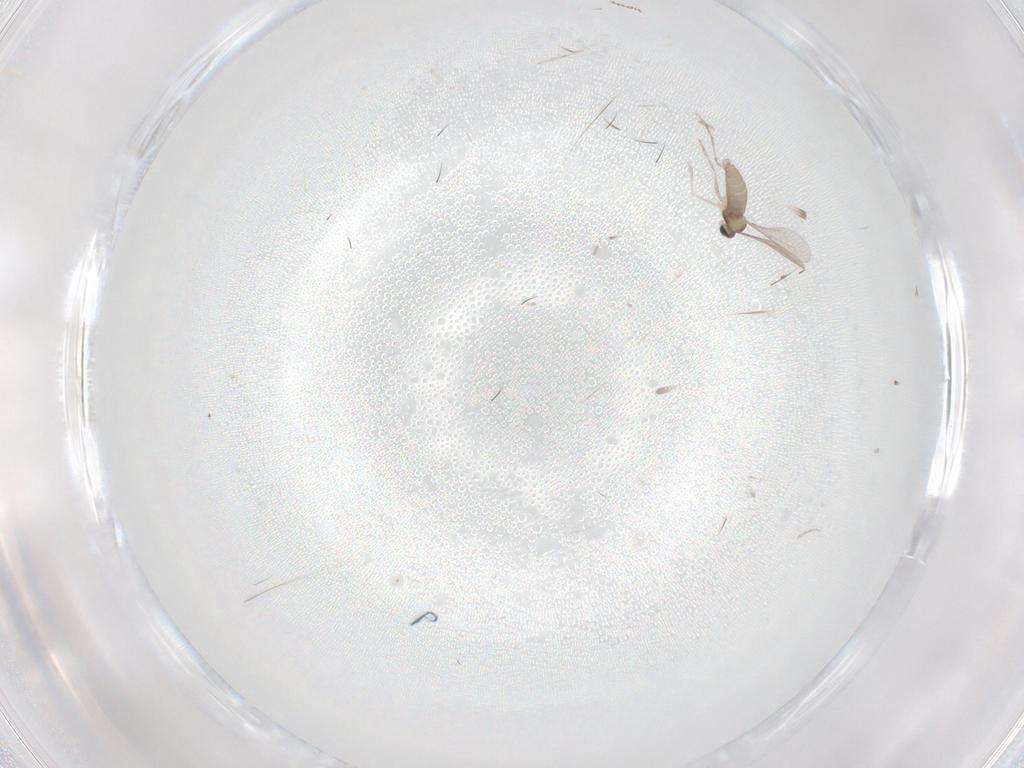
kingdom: Animalia
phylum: Arthropoda
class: Insecta
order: Diptera
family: Cecidomyiidae
